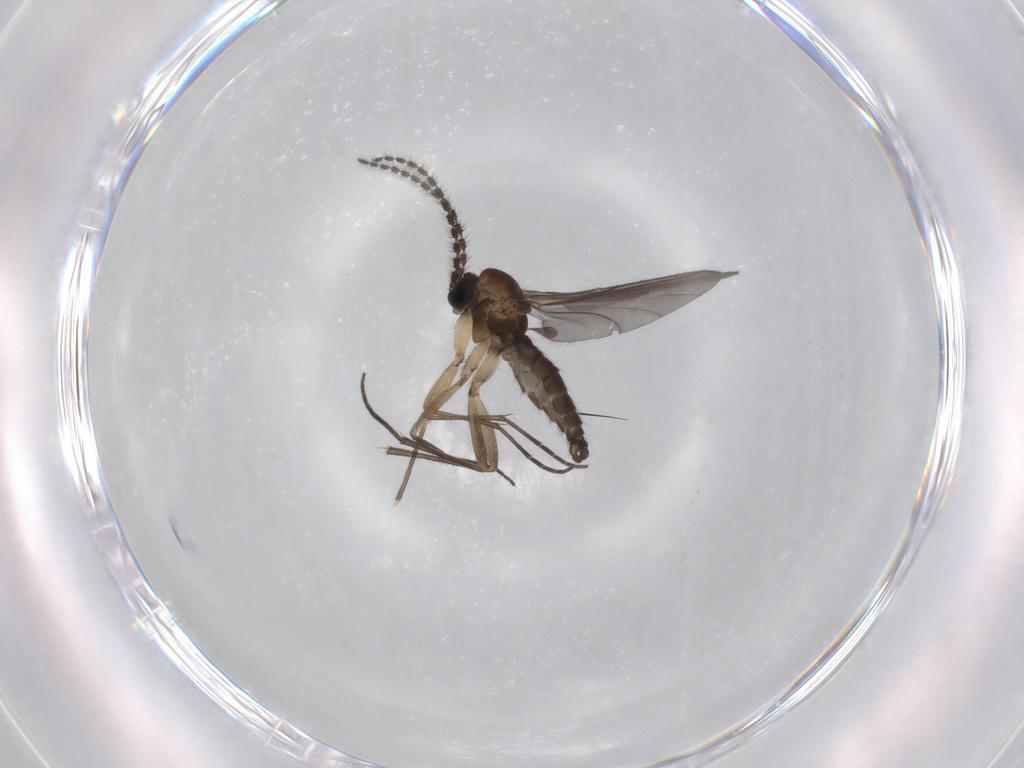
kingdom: Animalia
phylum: Arthropoda
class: Insecta
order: Diptera
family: Sciaridae
